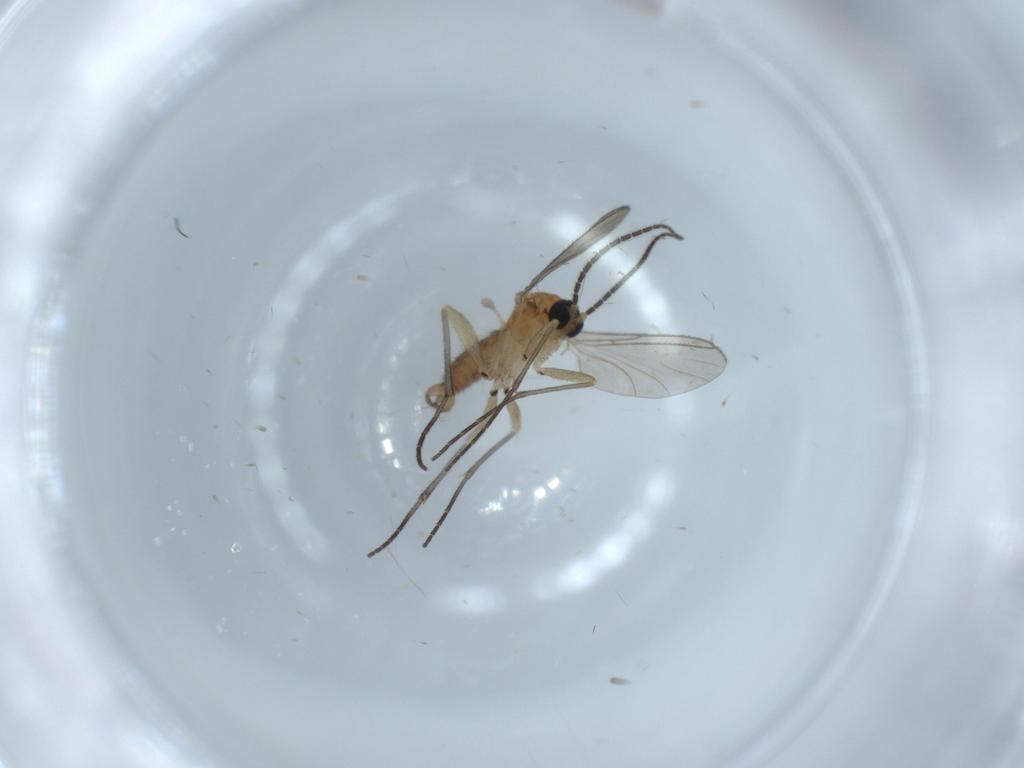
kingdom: Animalia
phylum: Arthropoda
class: Insecta
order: Diptera
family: Sciaridae
